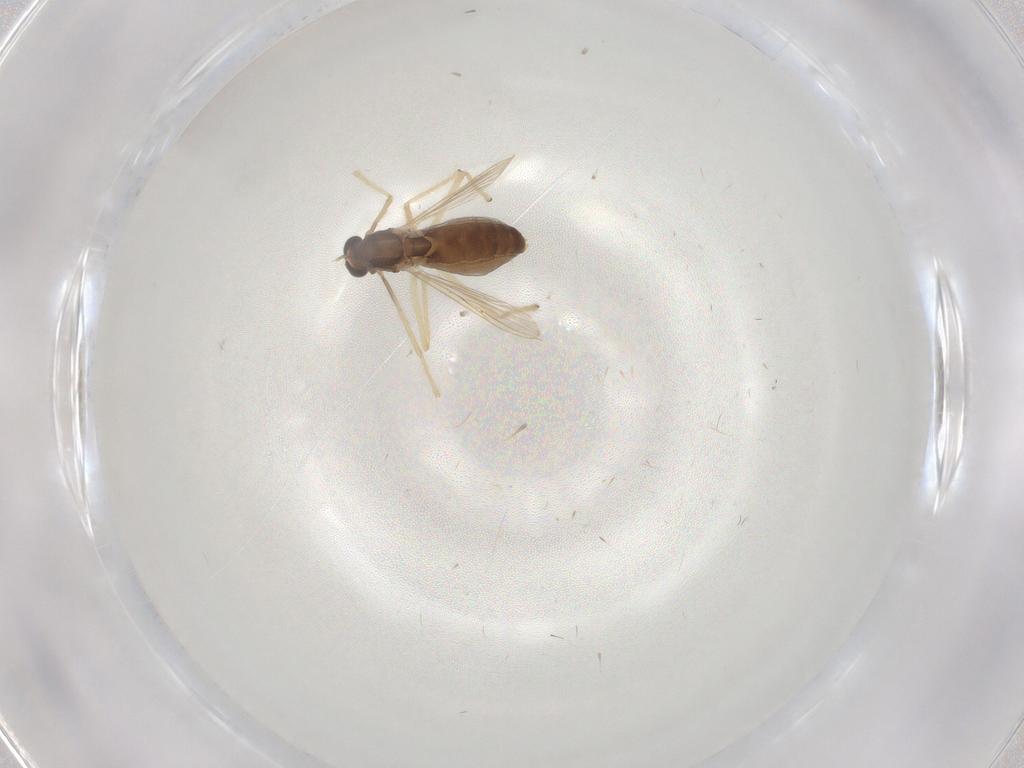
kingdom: Animalia
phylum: Arthropoda
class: Insecta
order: Diptera
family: Chironomidae
